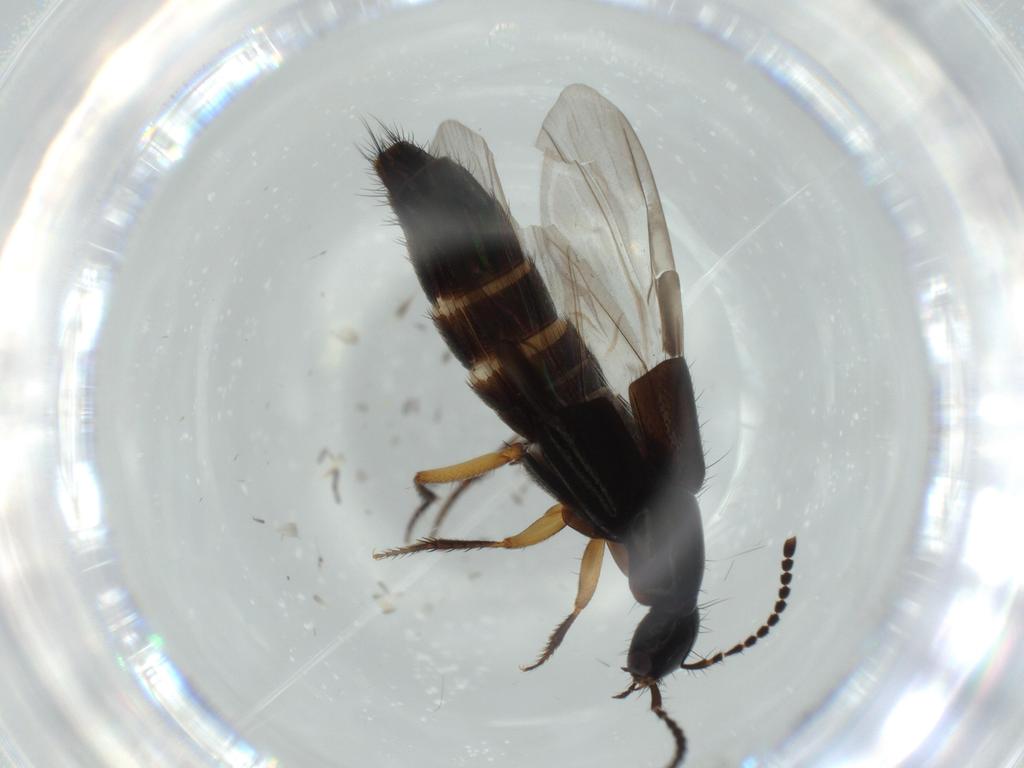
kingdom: Animalia
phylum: Arthropoda
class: Insecta
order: Coleoptera
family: Staphylinidae
